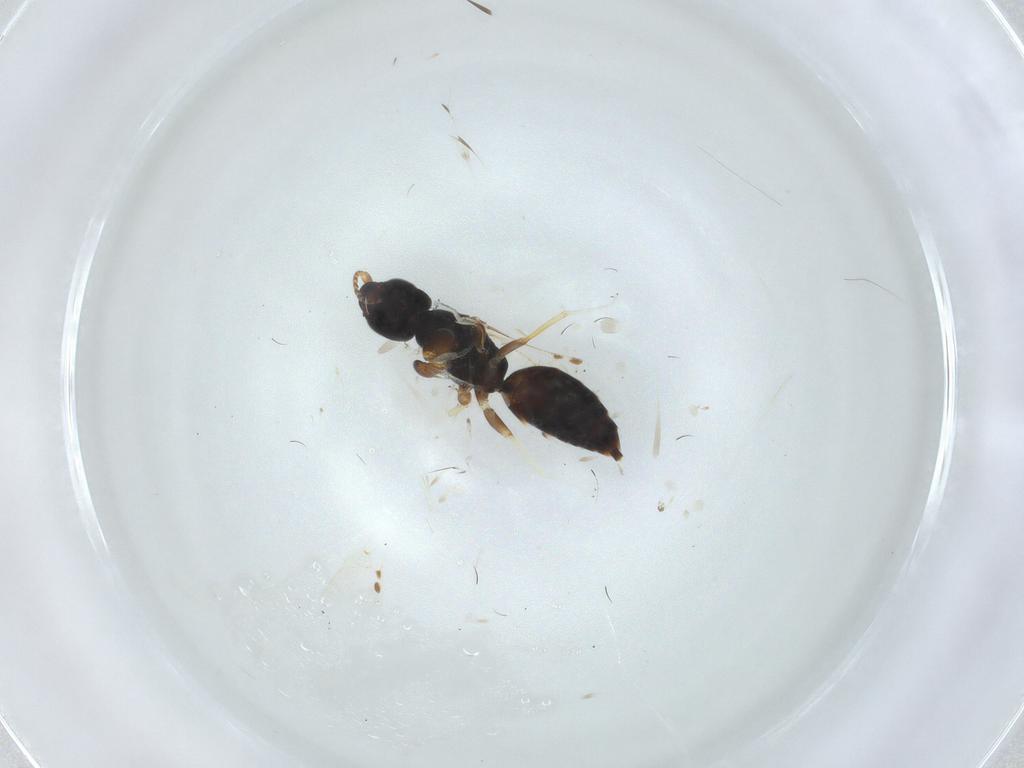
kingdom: Animalia
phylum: Arthropoda
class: Insecta
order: Hymenoptera
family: Bethylidae
